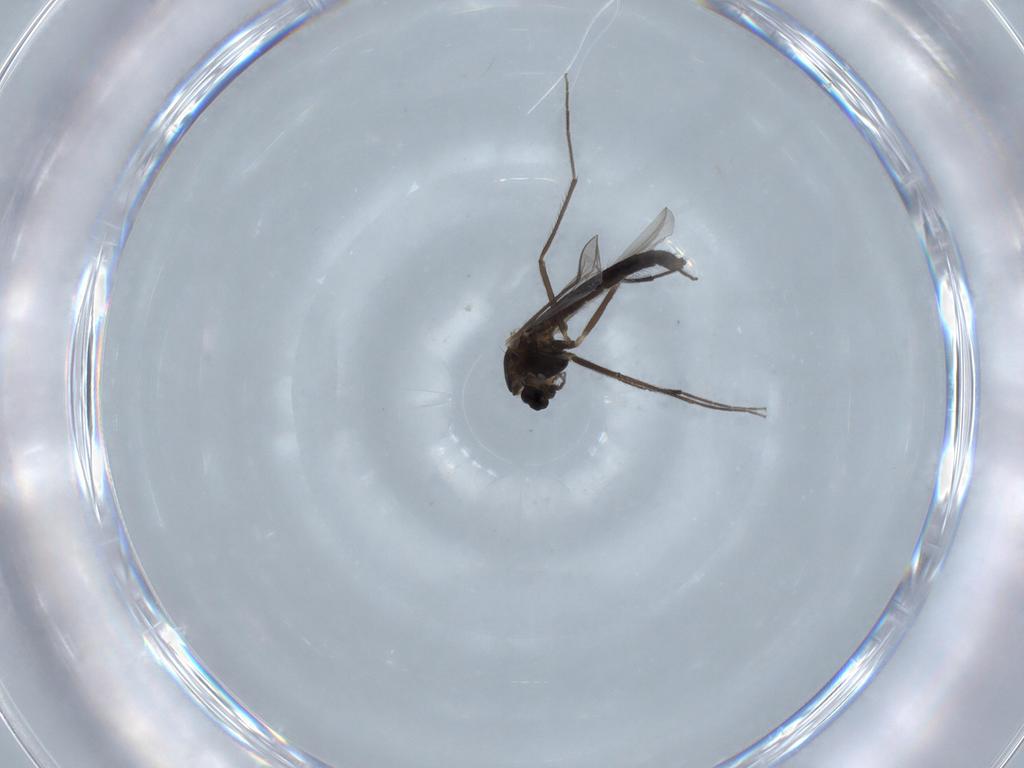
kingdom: Animalia
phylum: Arthropoda
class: Insecta
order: Diptera
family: Chironomidae
